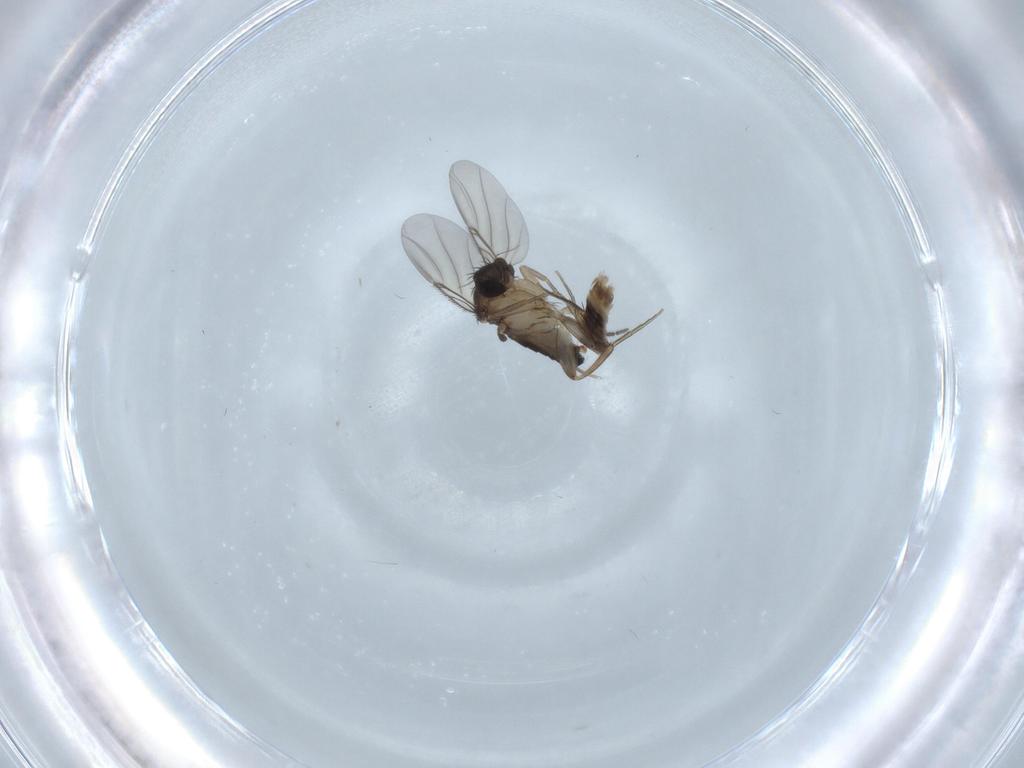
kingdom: Animalia
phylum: Arthropoda
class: Insecta
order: Diptera
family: Phoridae
